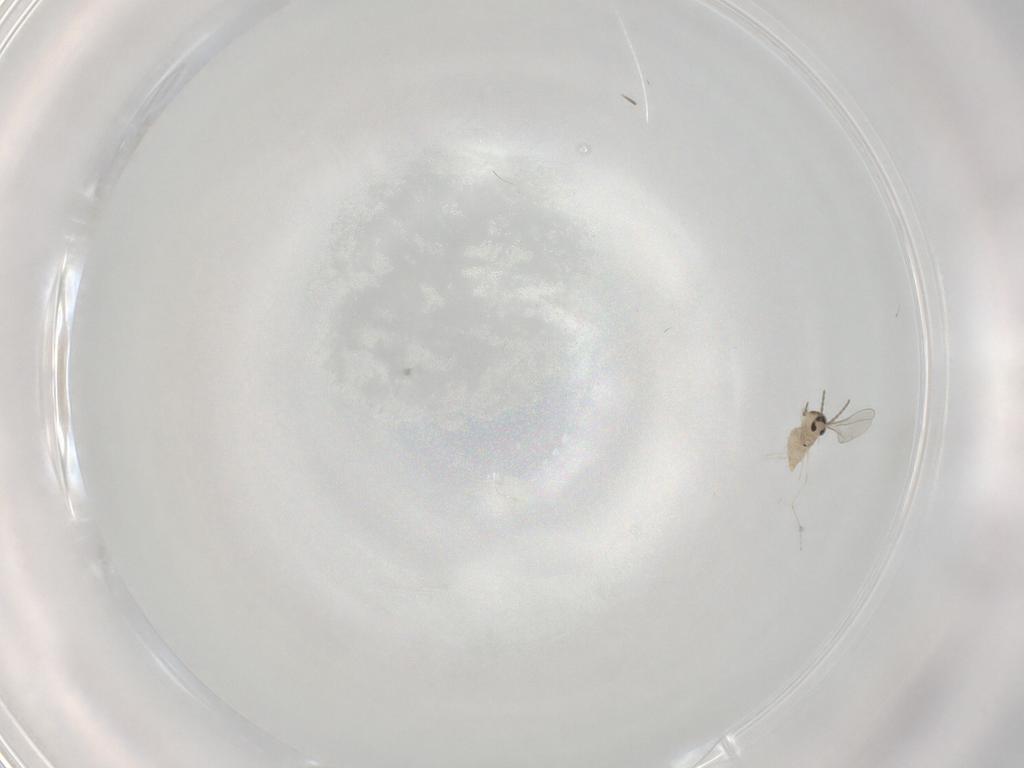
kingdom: Animalia
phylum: Arthropoda
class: Insecta
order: Diptera
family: Cecidomyiidae
